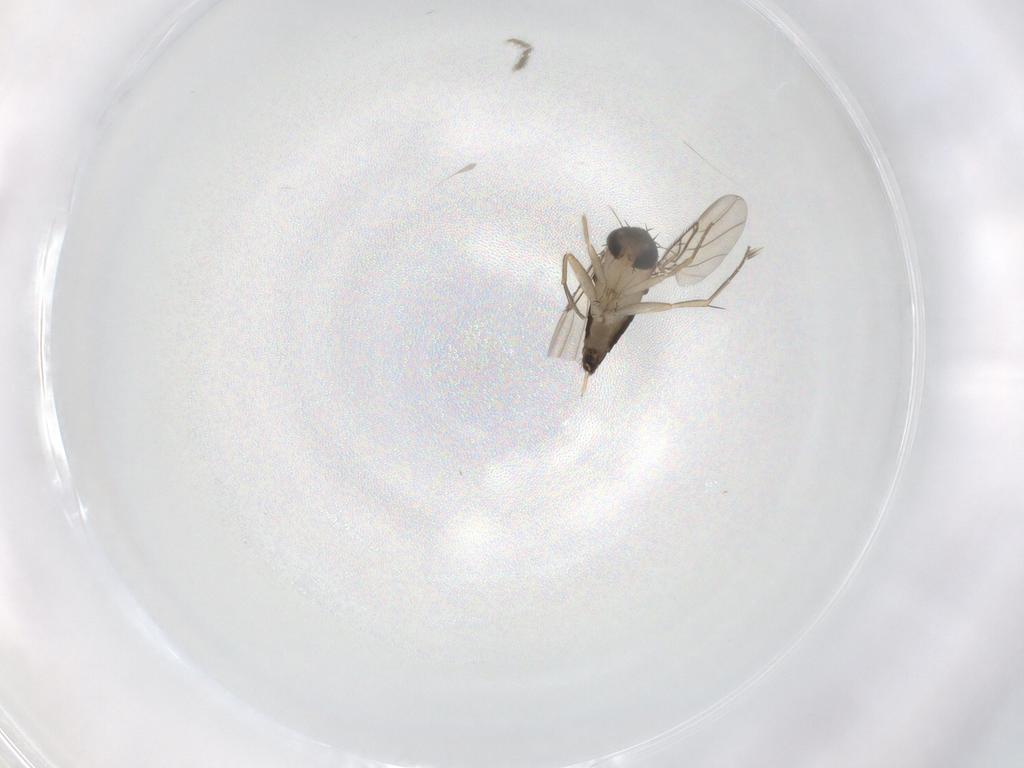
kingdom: Animalia
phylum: Arthropoda
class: Insecta
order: Diptera
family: Phoridae
